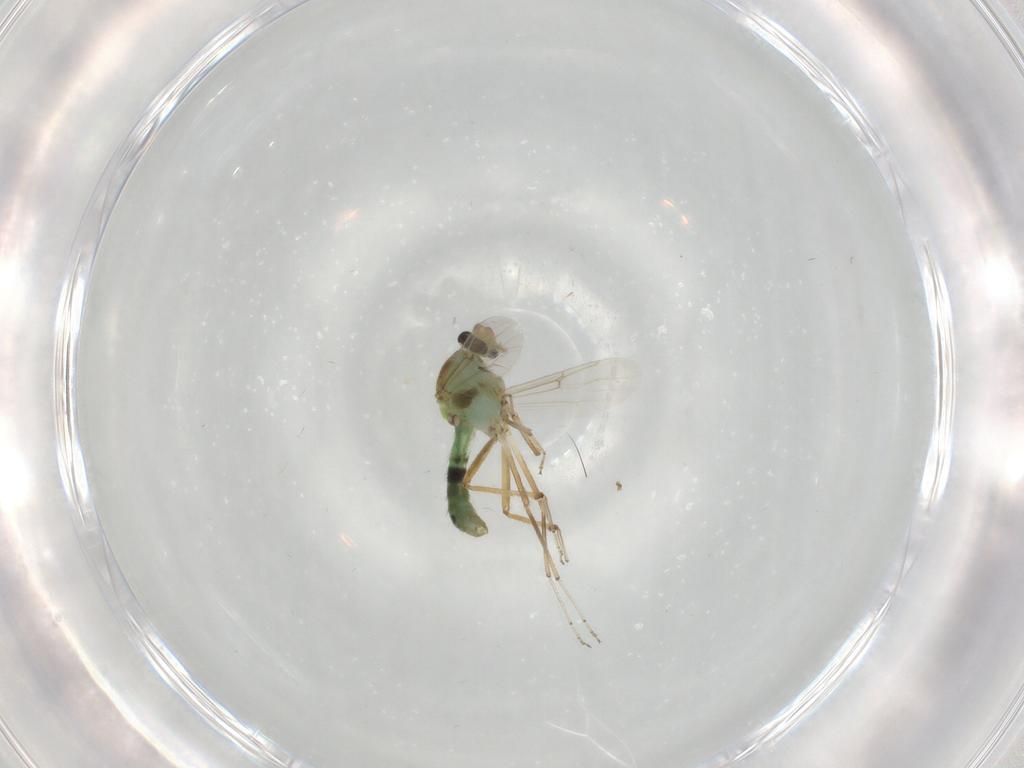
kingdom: Animalia
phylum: Arthropoda
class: Insecta
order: Diptera
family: Ceratopogonidae
